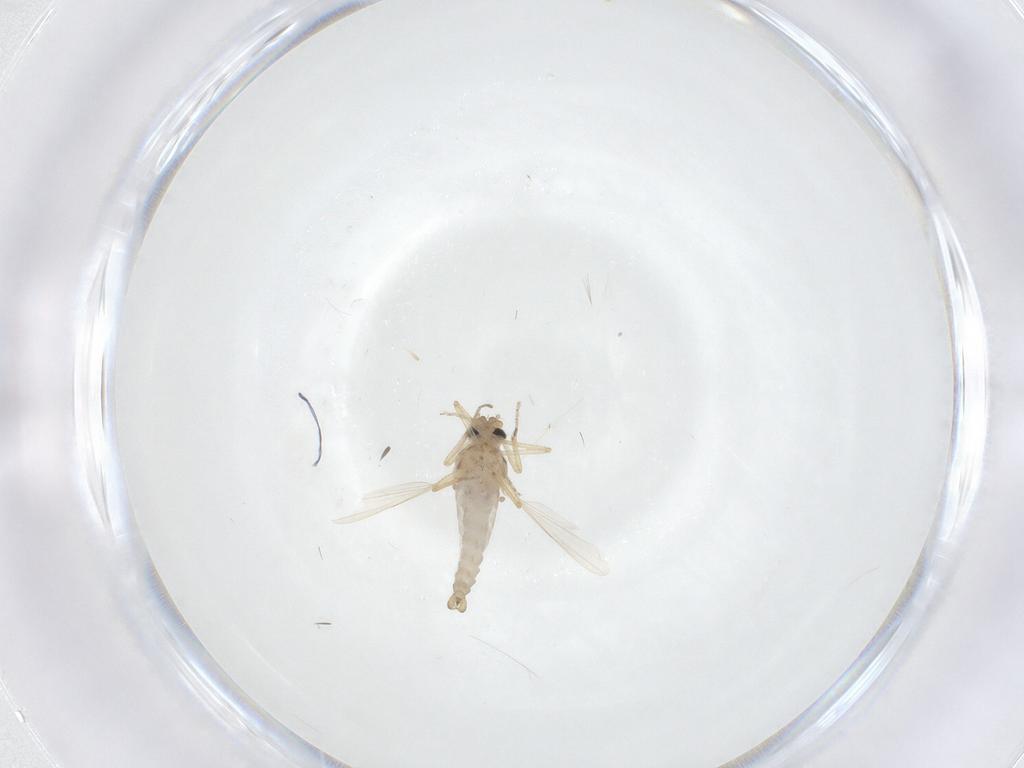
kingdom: Animalia
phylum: Arthropoda
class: Insecta
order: Diptera
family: Ceratopogonidae
